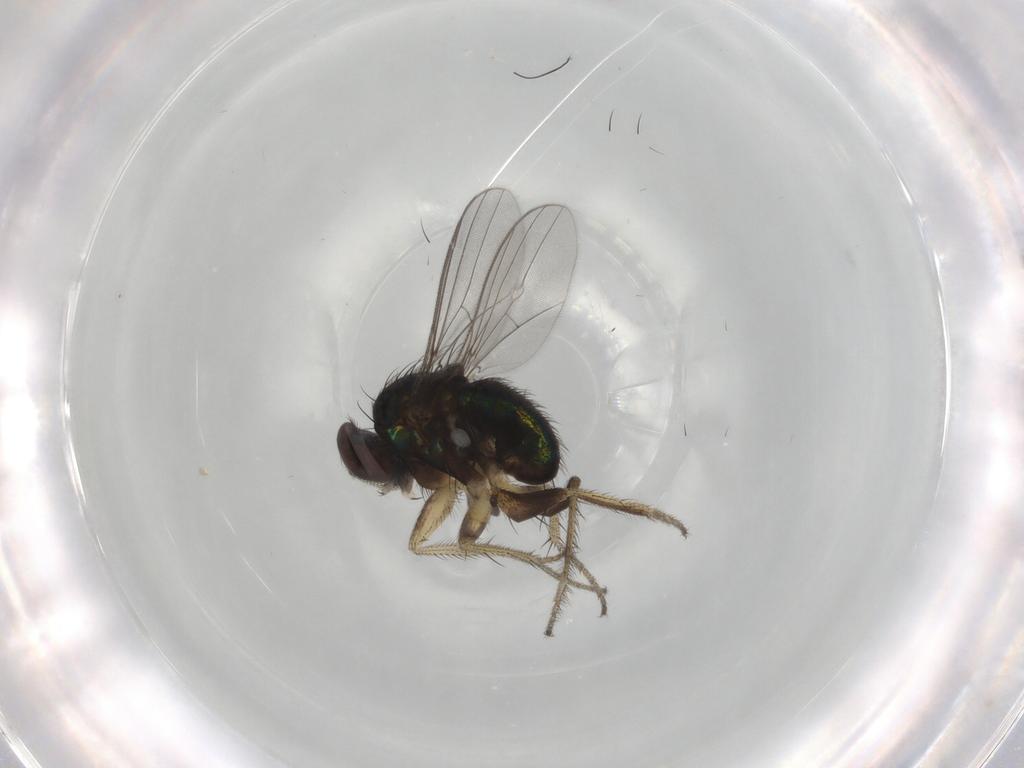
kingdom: Animalia
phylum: Arthropoda
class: Insecta
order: Diptera
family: Dolichopodidae
